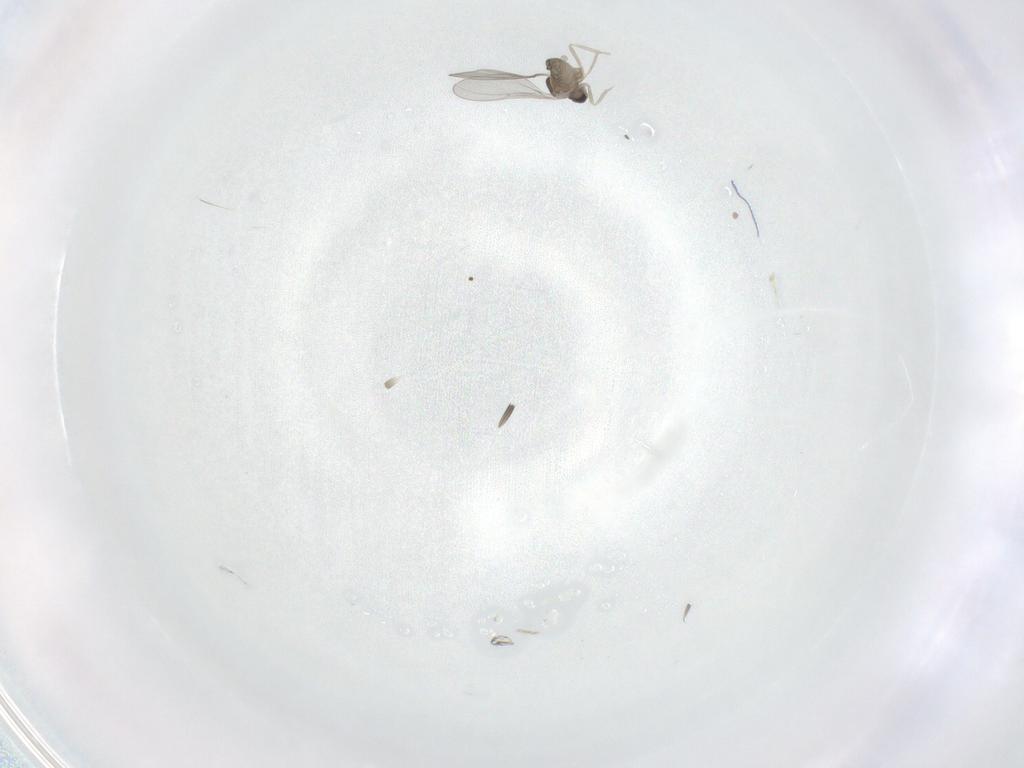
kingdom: Animalia
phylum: Arthropoda
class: Insecta
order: Diptera
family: Cecidomyiidae
